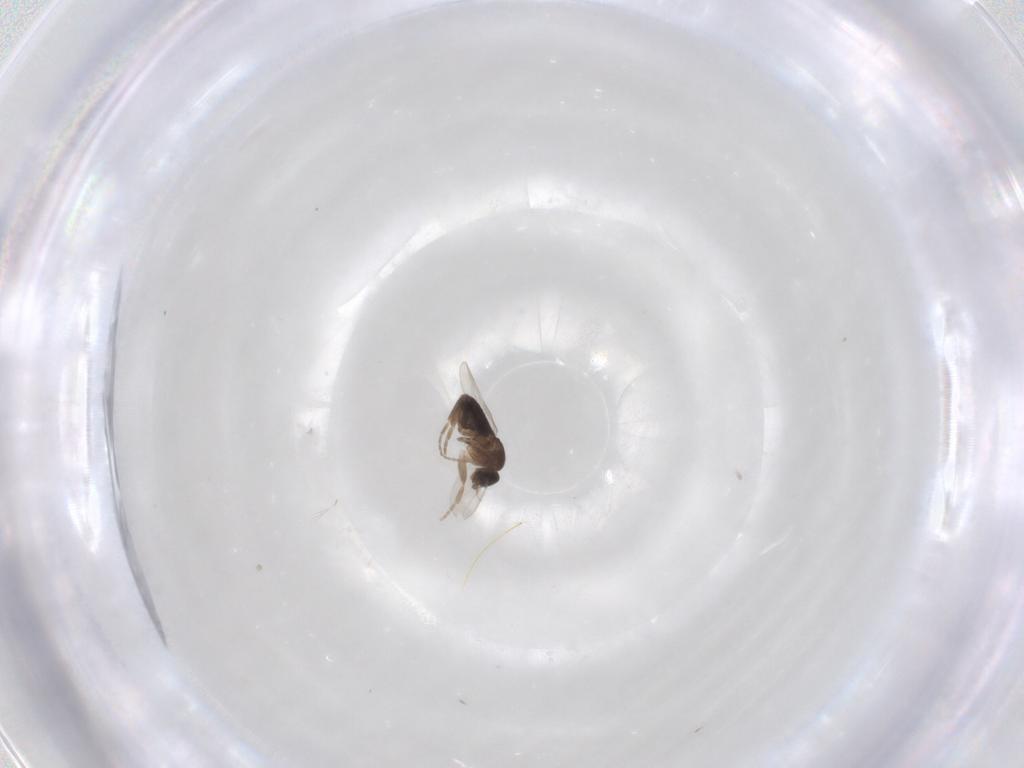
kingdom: Animalia
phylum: Arthropoda
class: Insecta
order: Diptera
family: Phoridae
